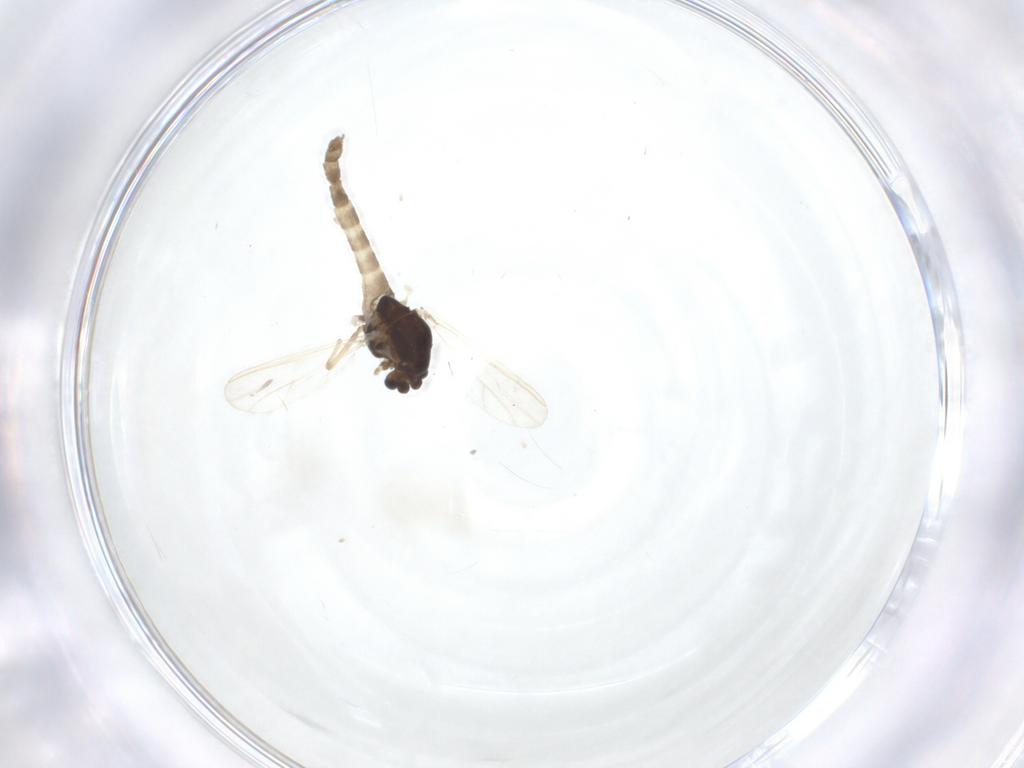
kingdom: Animalia
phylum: Arthropoda
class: Insecta
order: Diptera
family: Chironomidae
